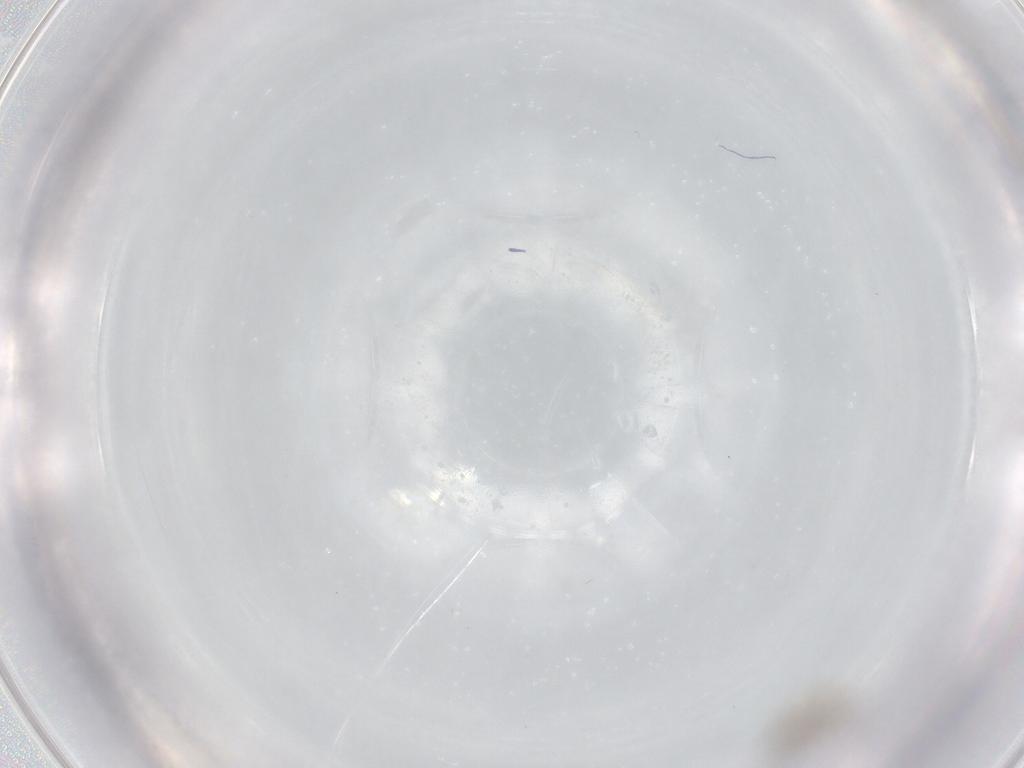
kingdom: Animalia
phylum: Arthropoda
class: Insecta
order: Diptera
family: Cecidomyiidae
